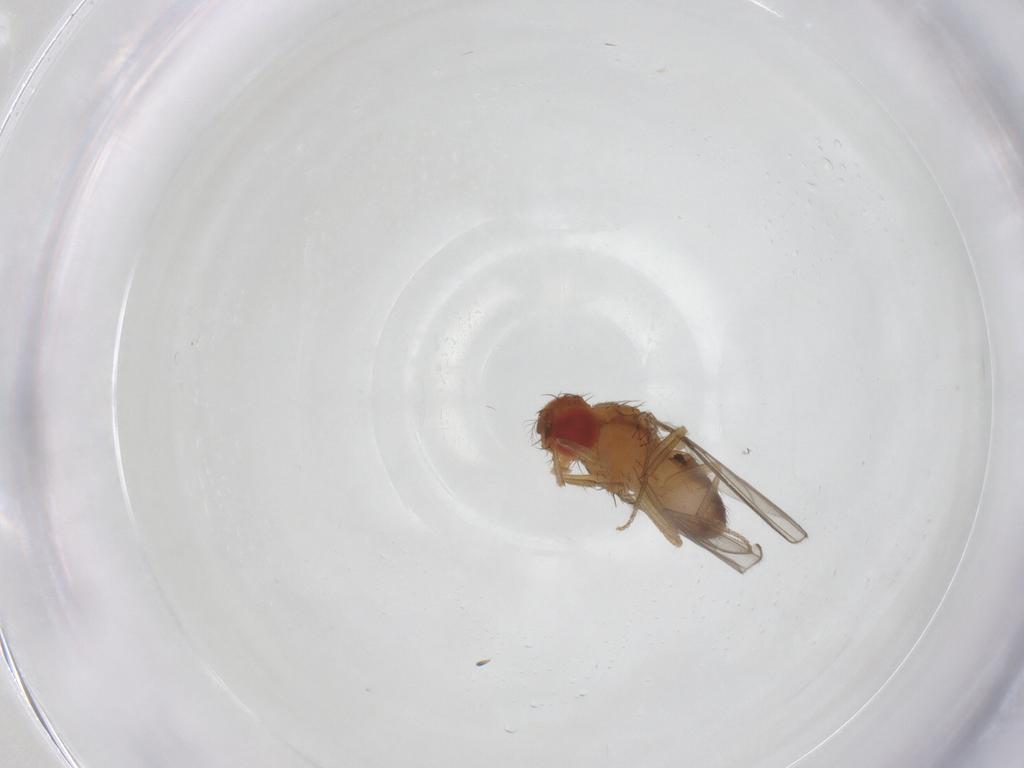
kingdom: Animalia
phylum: Arthropoda
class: Insecta
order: Diptera
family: Drosophilidae
